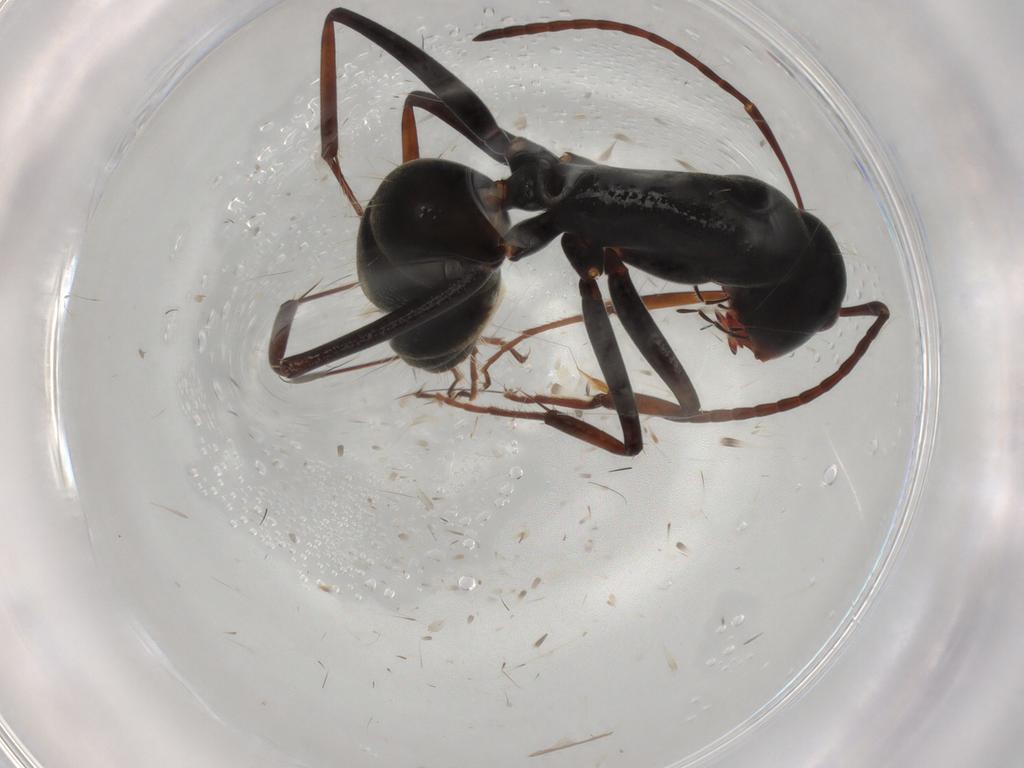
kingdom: Animalia
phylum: Arthropoda
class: Insecta
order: Hymenoptera
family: Formicidae
